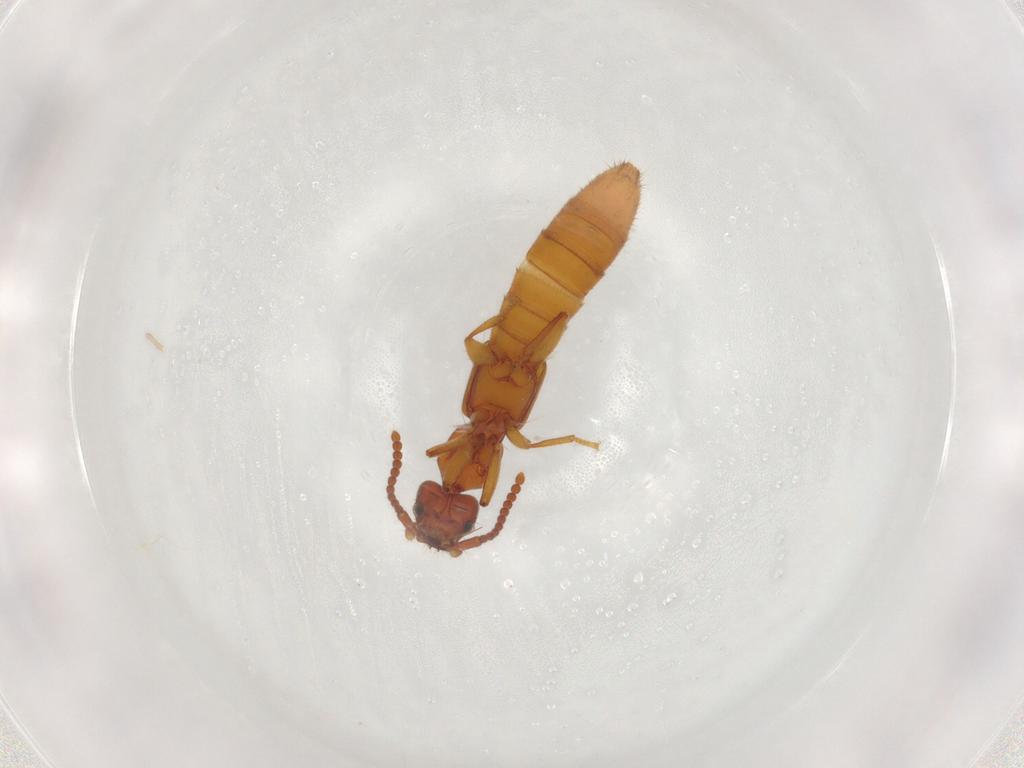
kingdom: Animalia
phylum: Arthropoda
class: Insecta
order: Coleoptera
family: Staphylinidae
